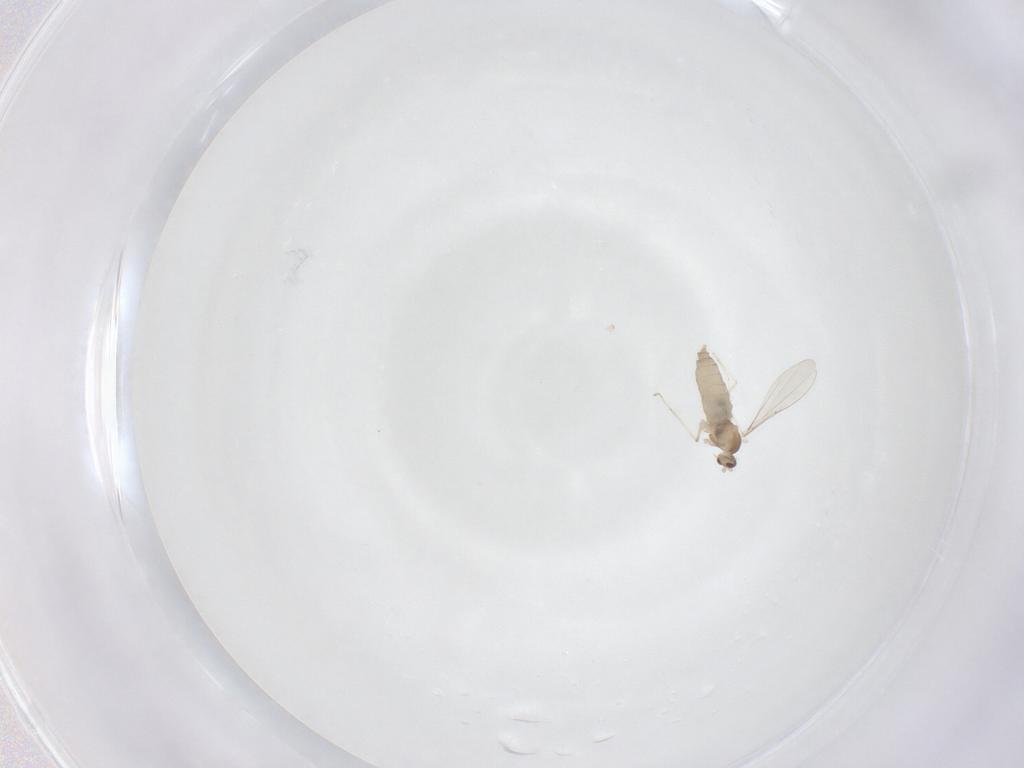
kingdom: Animalia
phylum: Arthropoda
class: Insecta
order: Diptera
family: Cecidomyiidae
